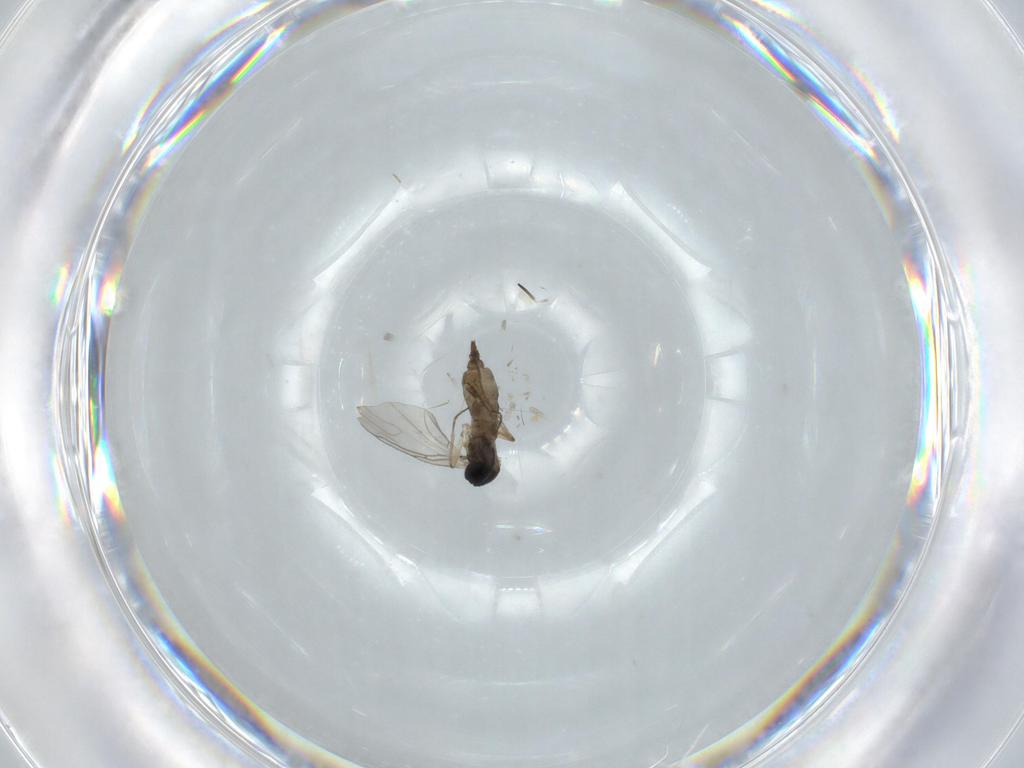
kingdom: Animalia
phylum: Arthropoda
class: Insecta
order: Diptera
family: Sciaridae
